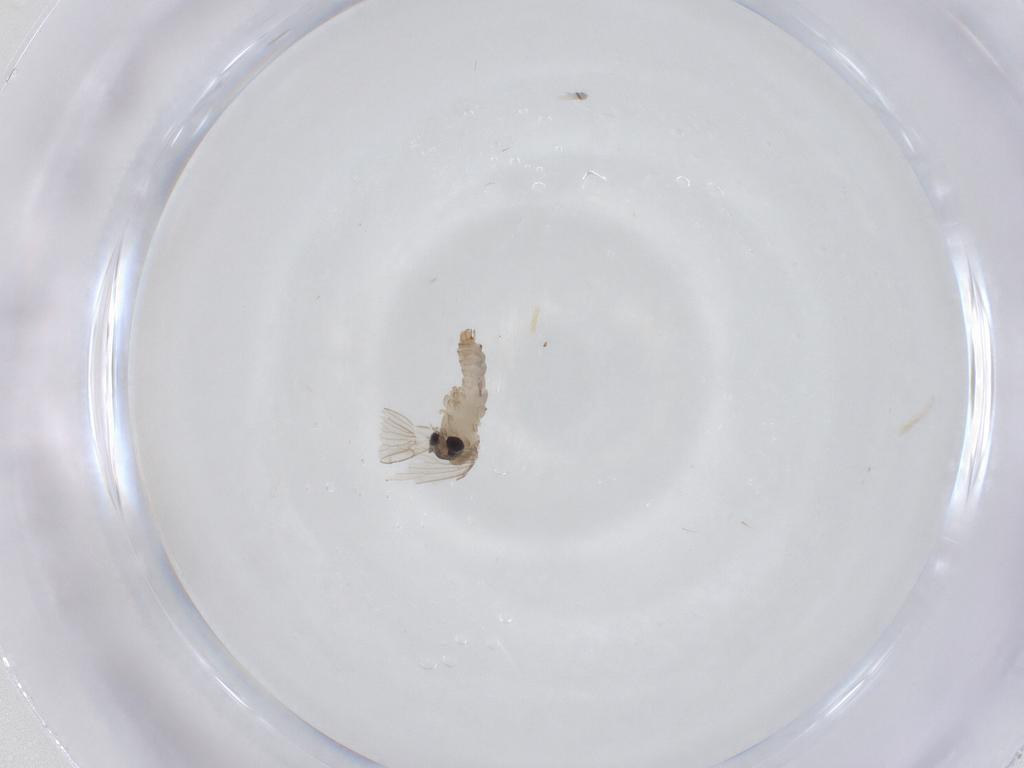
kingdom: Animalia
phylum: Arthropoda
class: Insecta
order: Diptera
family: Psychodidae
